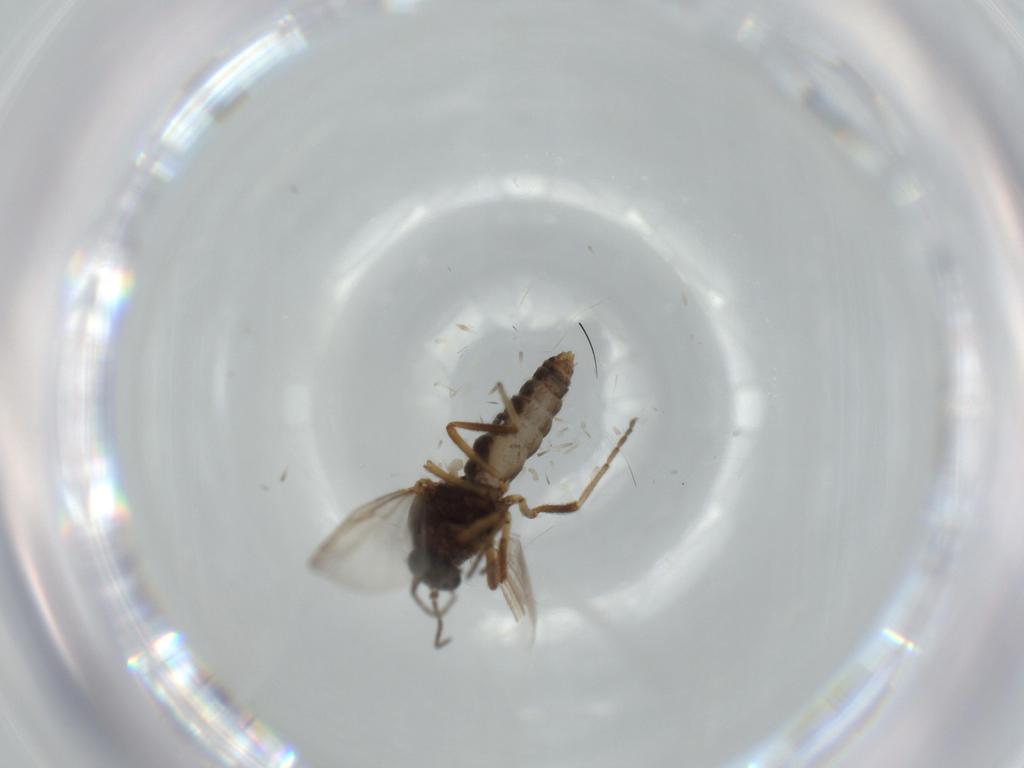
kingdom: Animalia
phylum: Arthropoda
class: Insecta
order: Diptera
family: Ceratopogonidae
